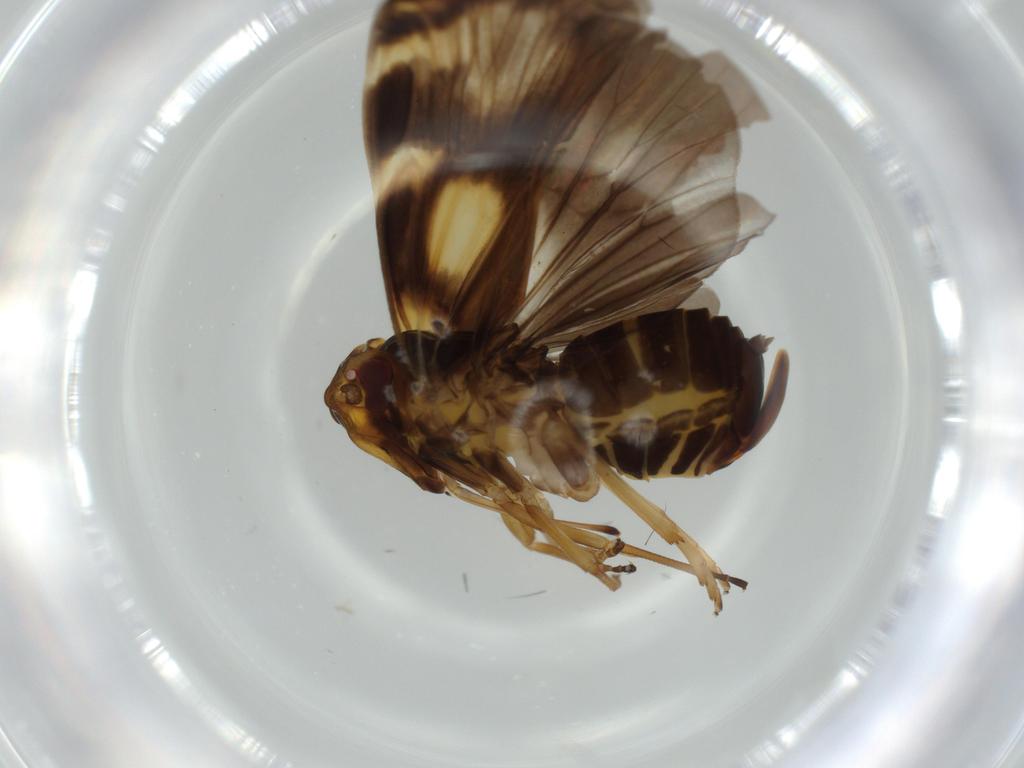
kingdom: Animalia
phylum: Arthropoda
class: Insecta
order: Hemiptera
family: Cixiidae
